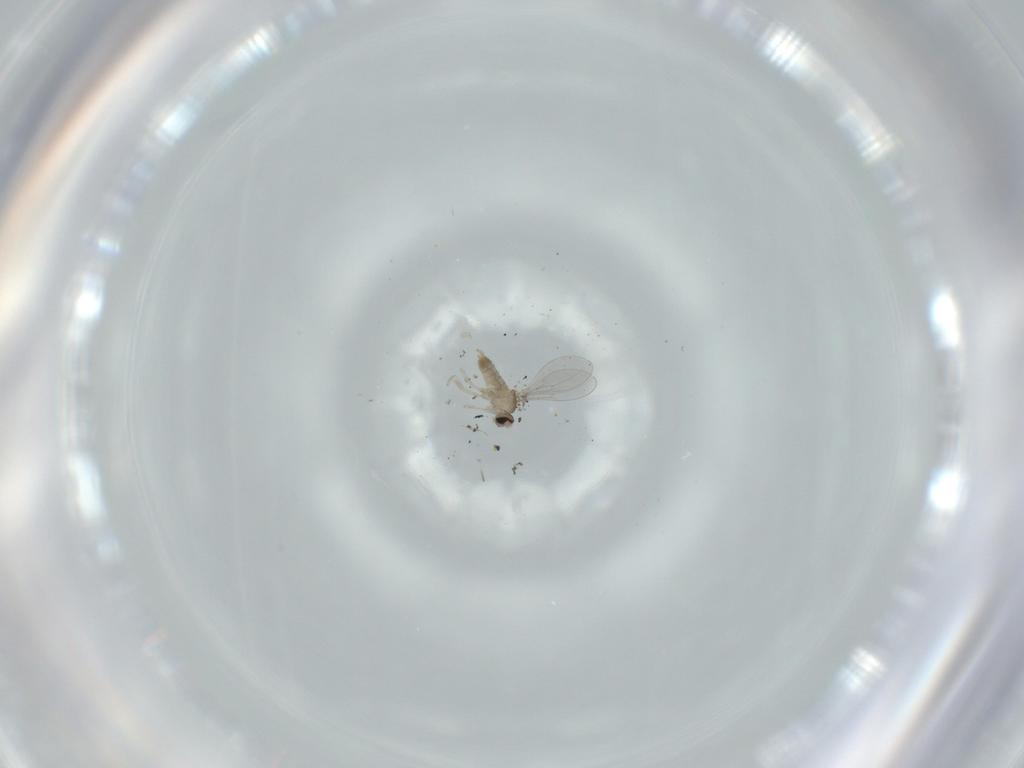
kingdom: Animalia
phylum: Arthropoda
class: Insecta
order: Diptera
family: Cecidomyiidae
